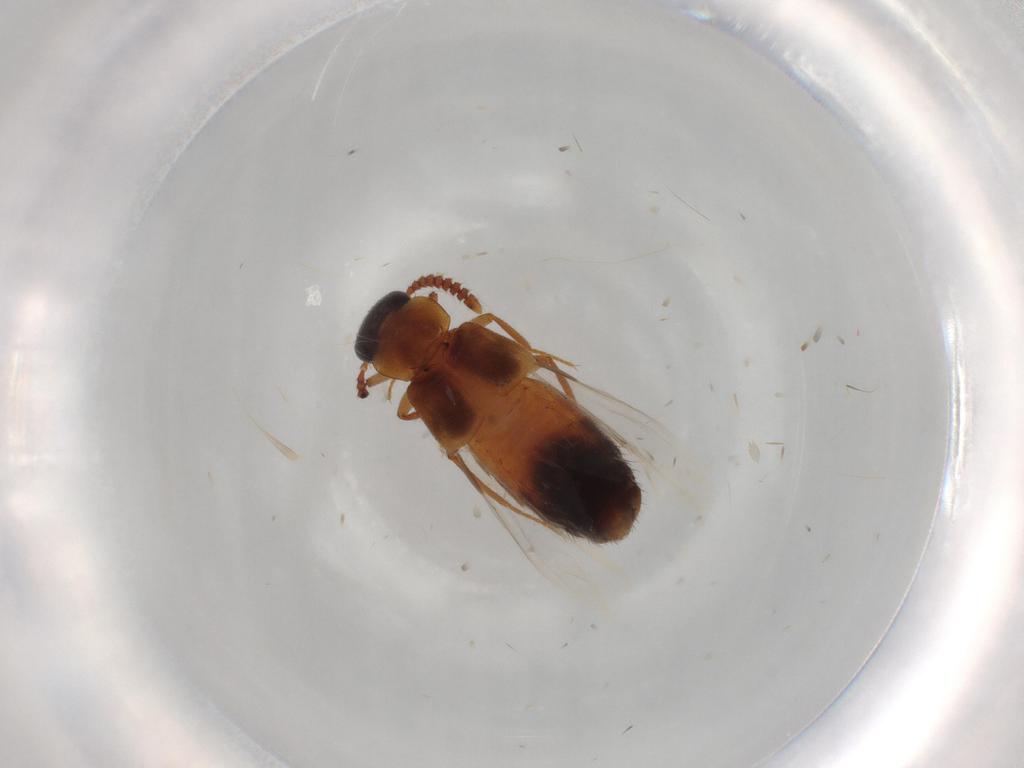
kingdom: Animalia
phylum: Arthropoda
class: Insecta
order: Coleoptera
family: Staphylinidae
